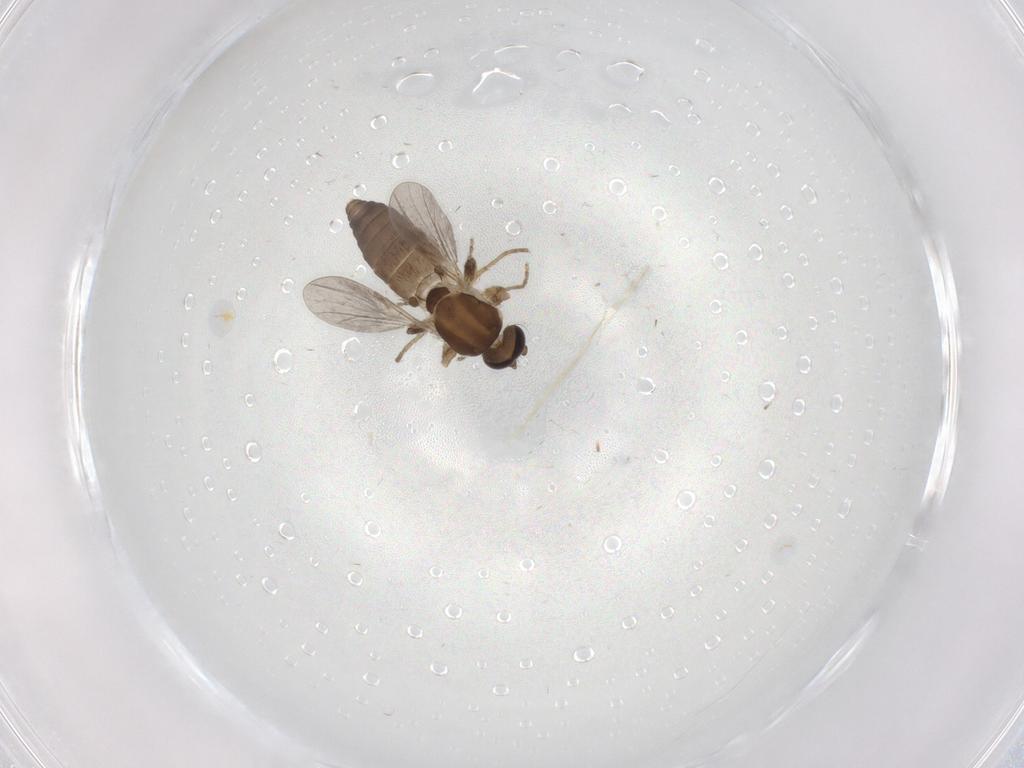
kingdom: Animalia
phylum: Arthropoda
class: Insecta
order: Diptera
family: Ceratopogonidae
